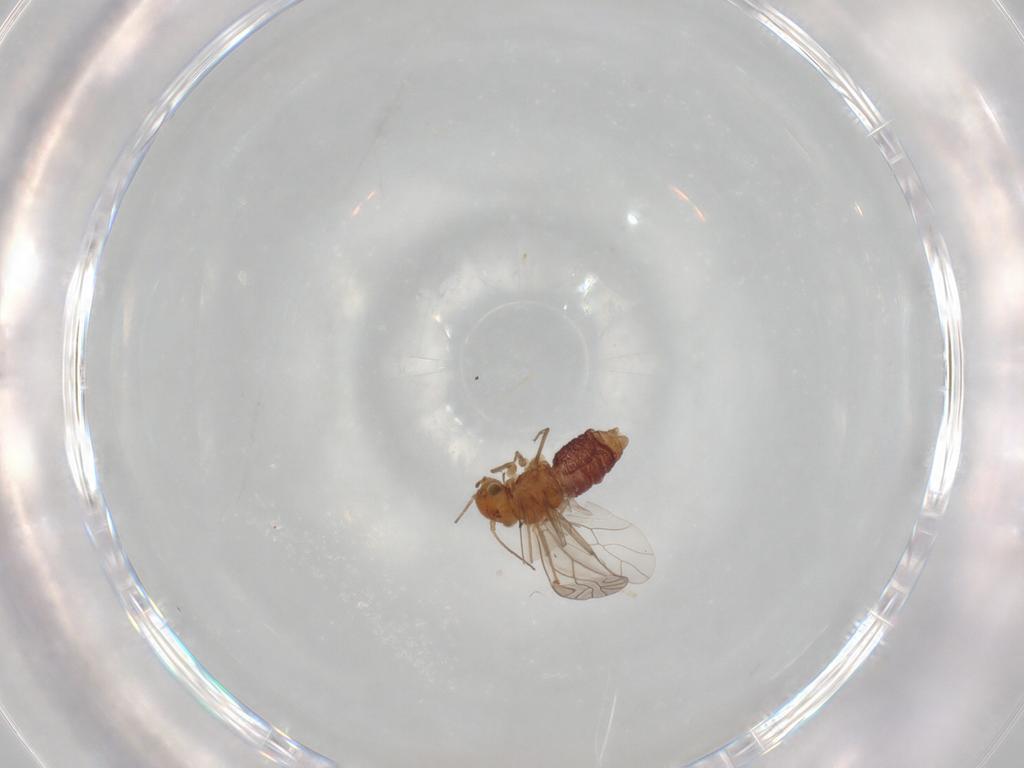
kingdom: Animalia
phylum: Arthropoda
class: Insecta
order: Psocodea
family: Lachesillidae
